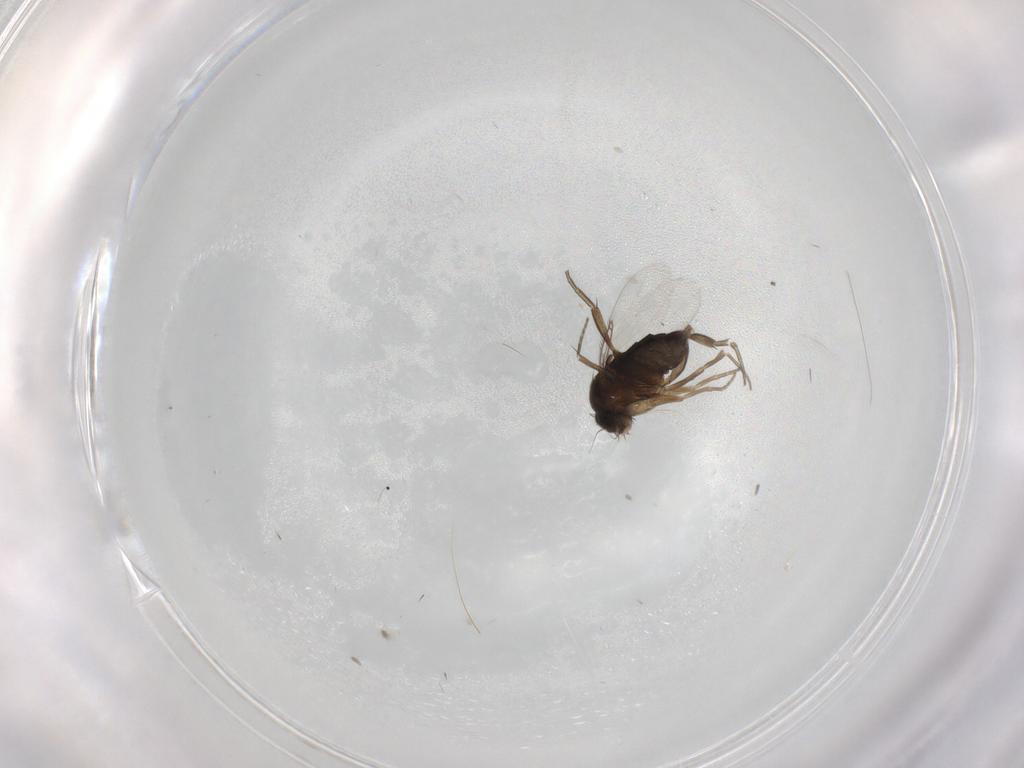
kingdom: Animalia
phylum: Arthropoda
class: Insecta
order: Diptera
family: Phoridae
